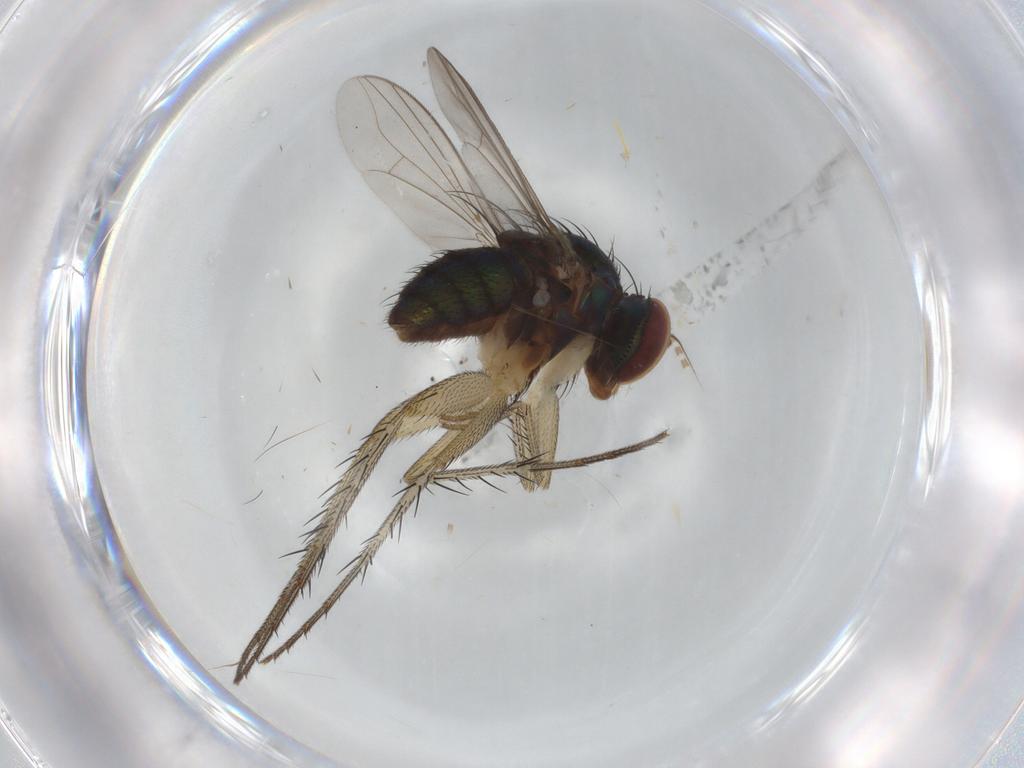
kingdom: Animalia
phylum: Arthropoda
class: Insecta
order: Diptera
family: Dolichopodidae
